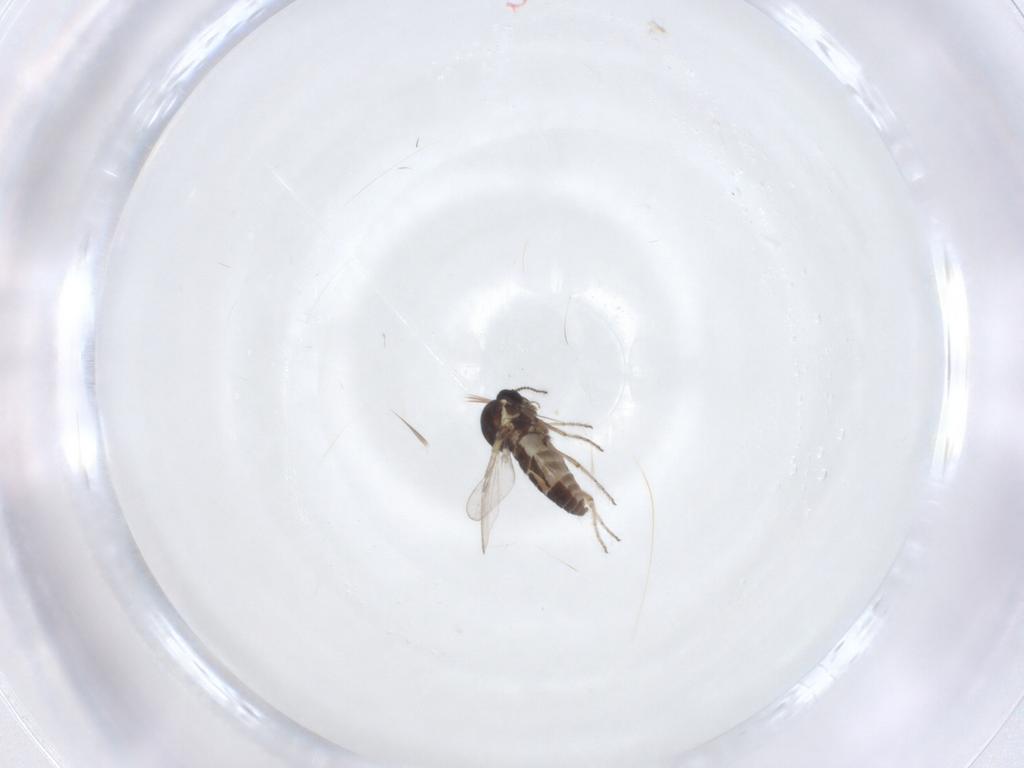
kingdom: Animalia
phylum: Arthropoda
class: Insecta
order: Diptera
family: Ceratopogonidae
